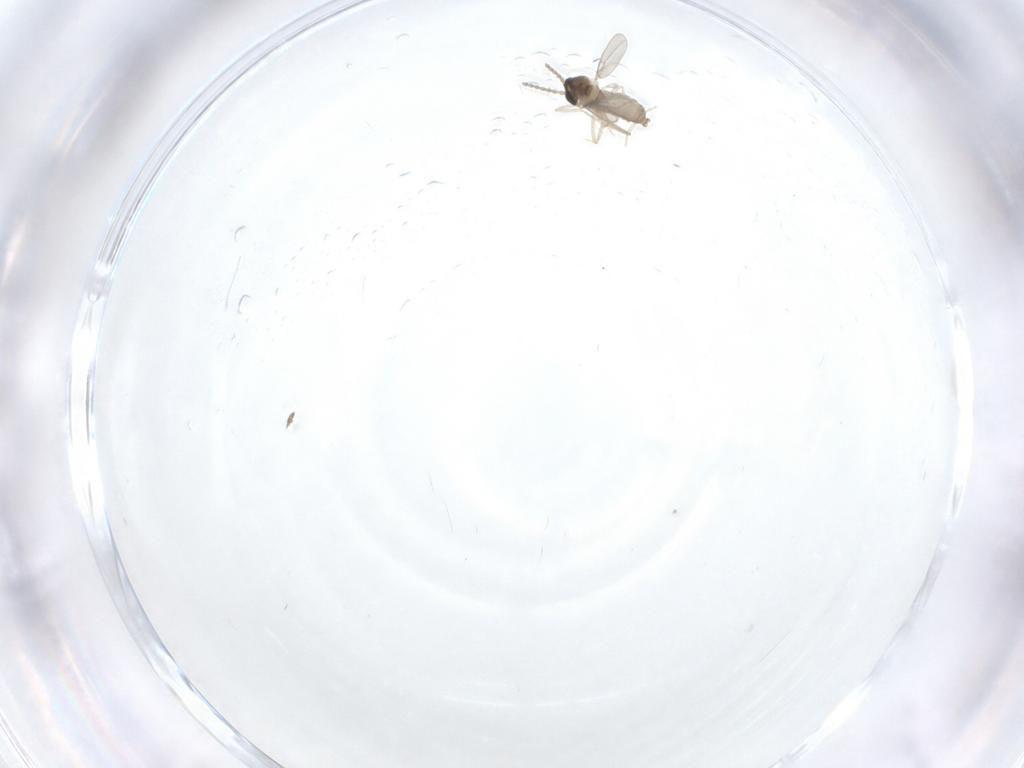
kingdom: Animalia
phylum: Arthropoda
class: Insecta
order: Diptera
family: Cecidomyiidae
